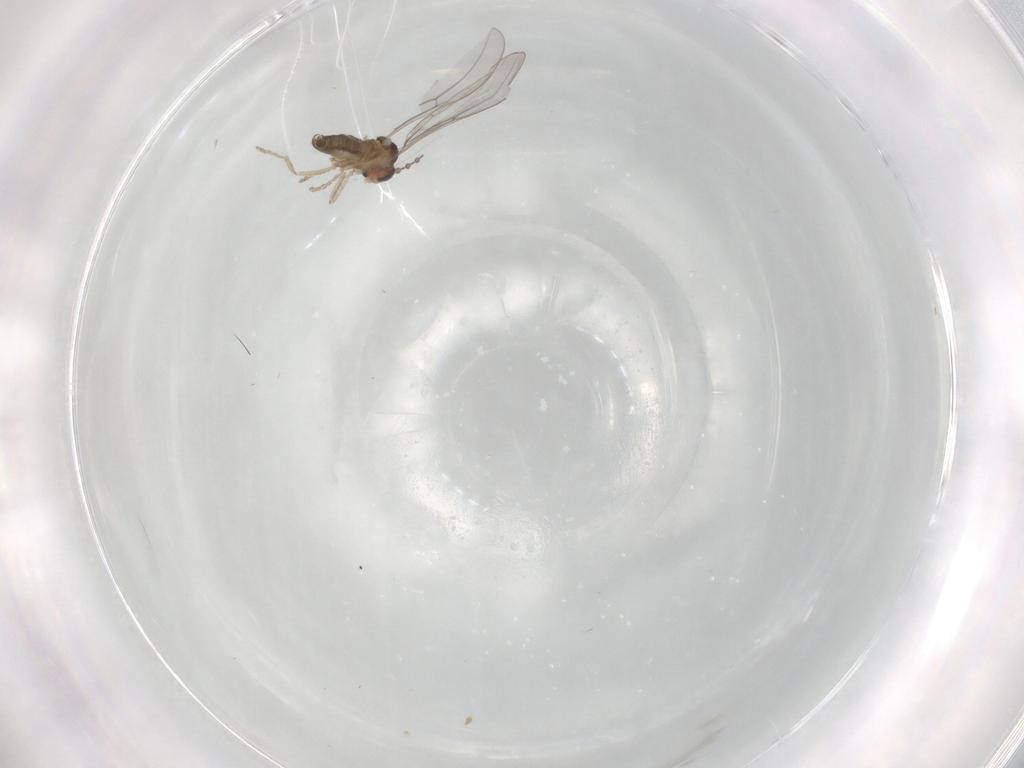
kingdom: Animalia
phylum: Arthropoda
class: Insecta
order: Diptera
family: Cecidomyiidae
